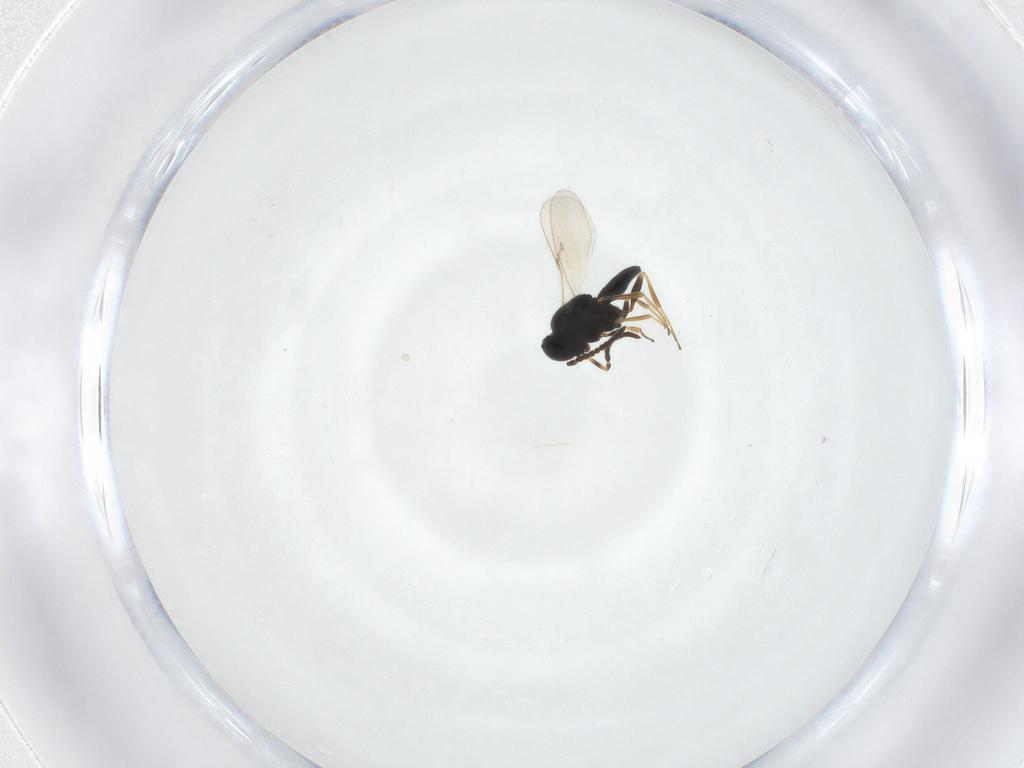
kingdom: Animalia
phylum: Arthropoda
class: Insecta
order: Hymenoptera
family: Scelionidae
